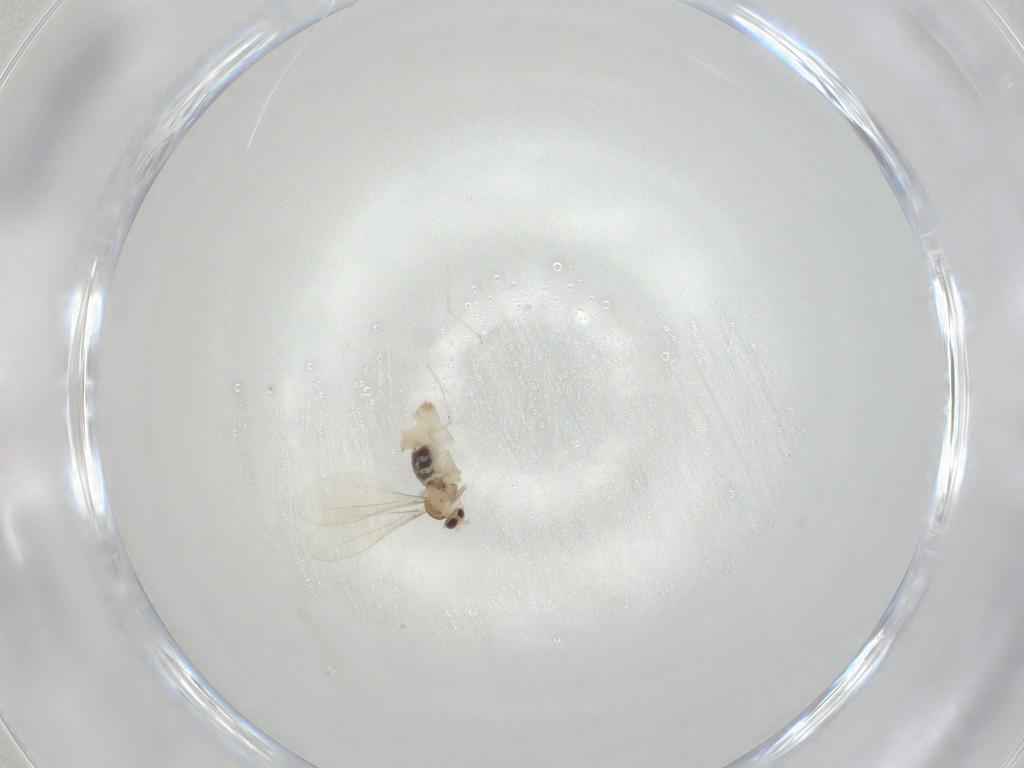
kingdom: Animalia
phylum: Arthropoda
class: Insecta
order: Diptera
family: Cecidomyiidae
